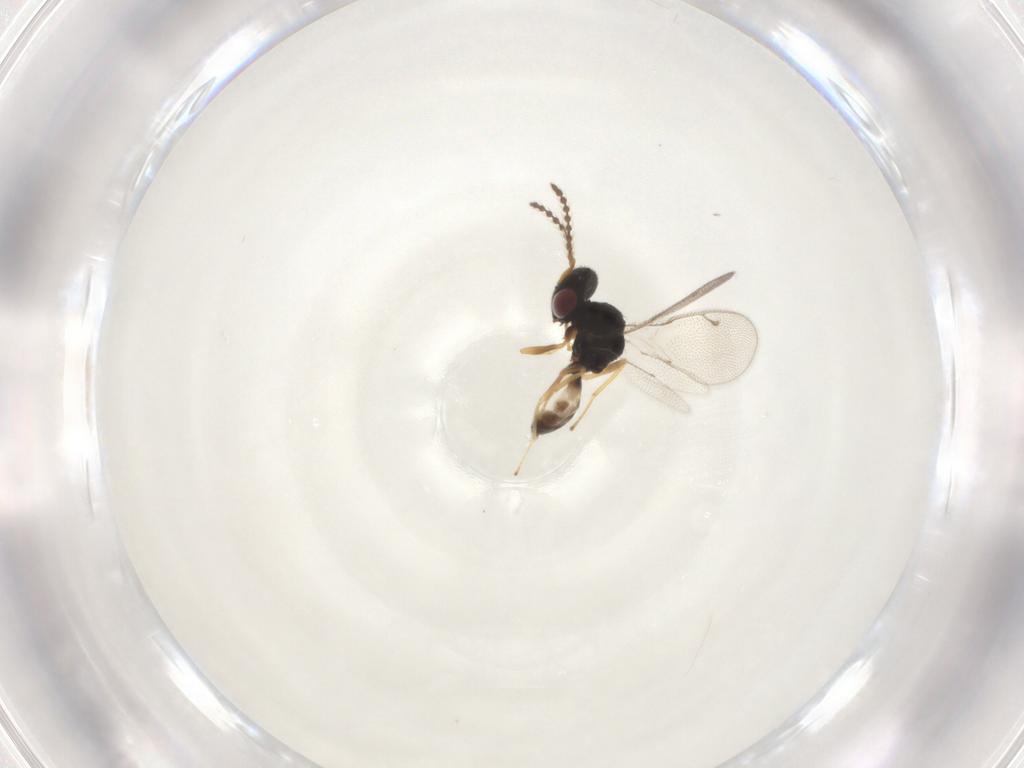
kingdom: Animalia
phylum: Arthropoda
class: Insecta
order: Hymenoptera
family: Pteromalidae
